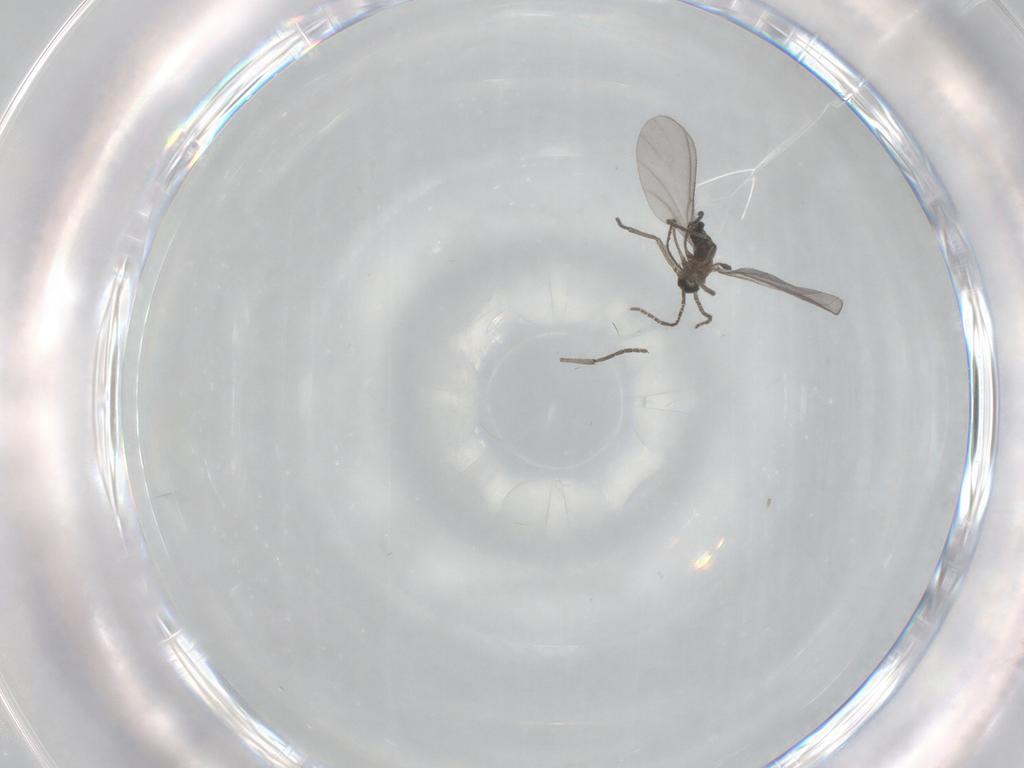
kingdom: Animalia
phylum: Arthropoda
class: Insecta
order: Diptera
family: Sciaridae
